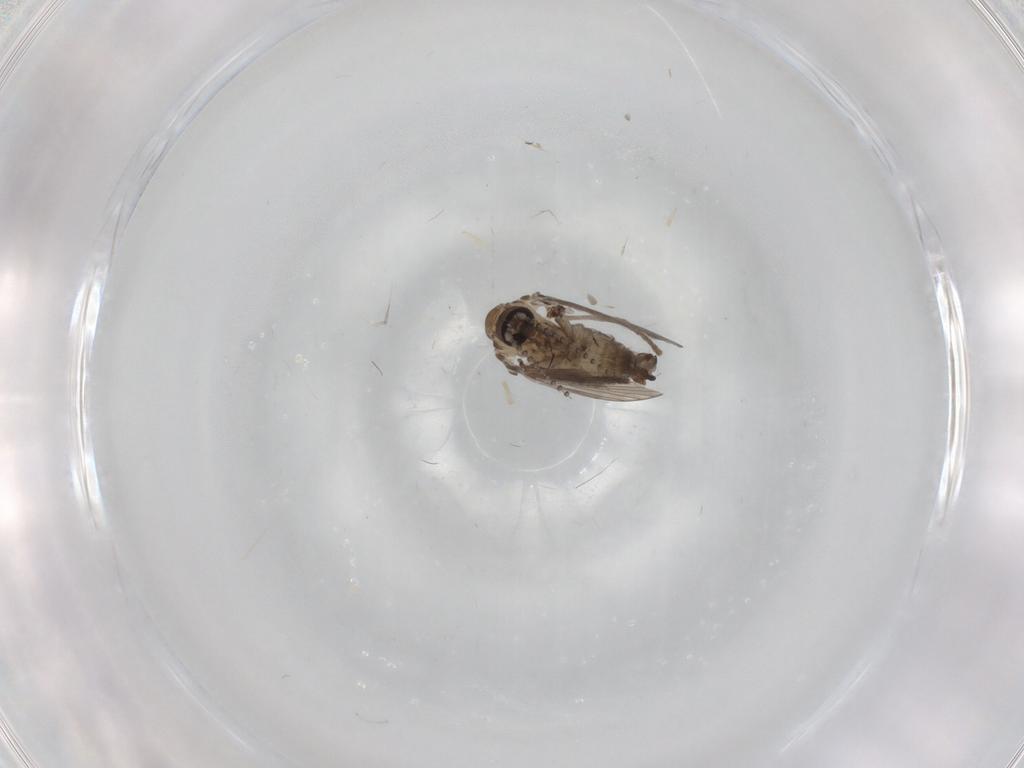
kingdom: Animalia
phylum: Arthropoda
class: Insecta
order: Diptera
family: Psychodidae
